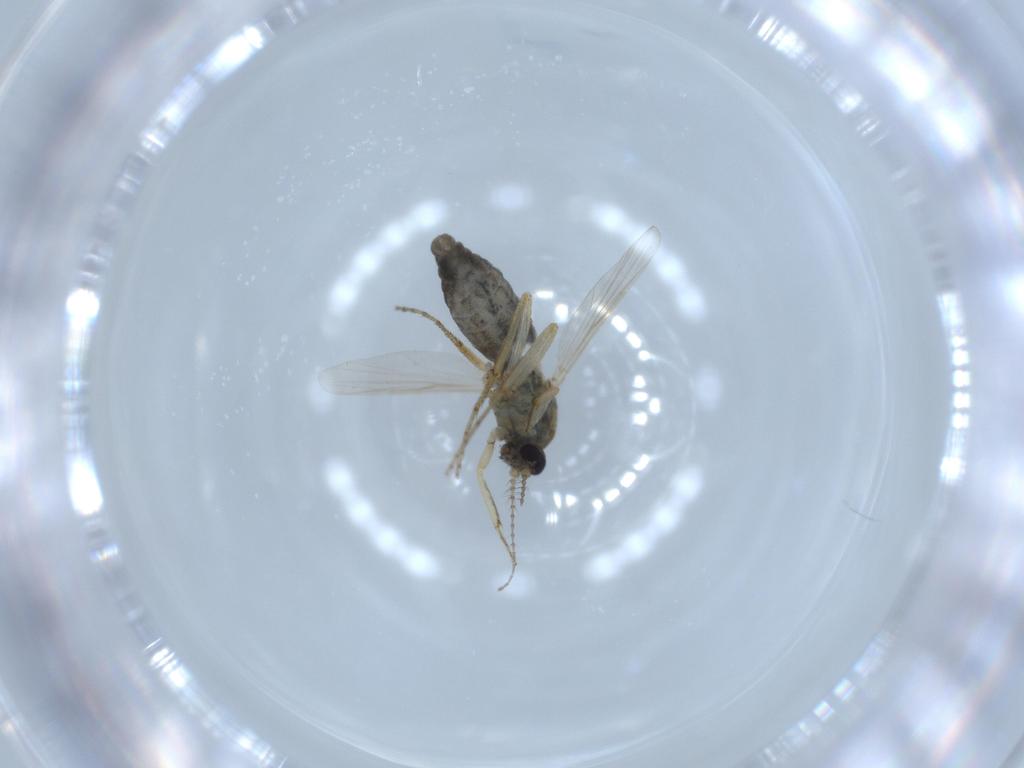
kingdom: Animalia
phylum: Arthropoda
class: Insecta
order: Diptera
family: Ceratopogonidae
